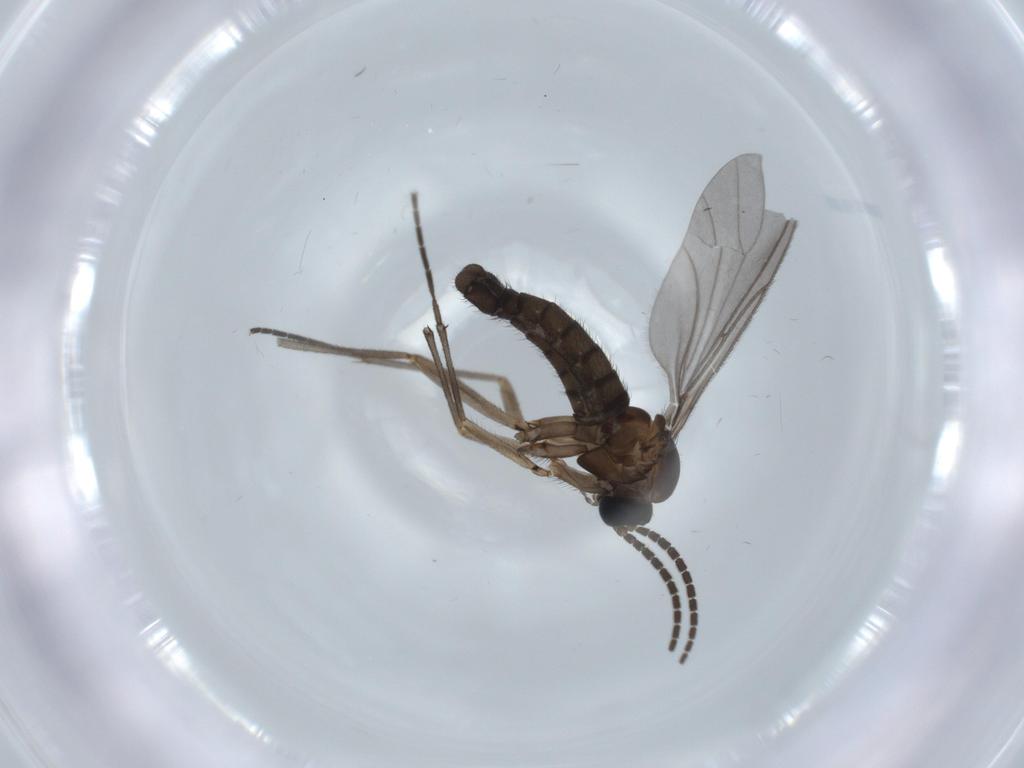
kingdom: Animalia
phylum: Arthropoda
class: Insecta
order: Diptera
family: Sciaridae
